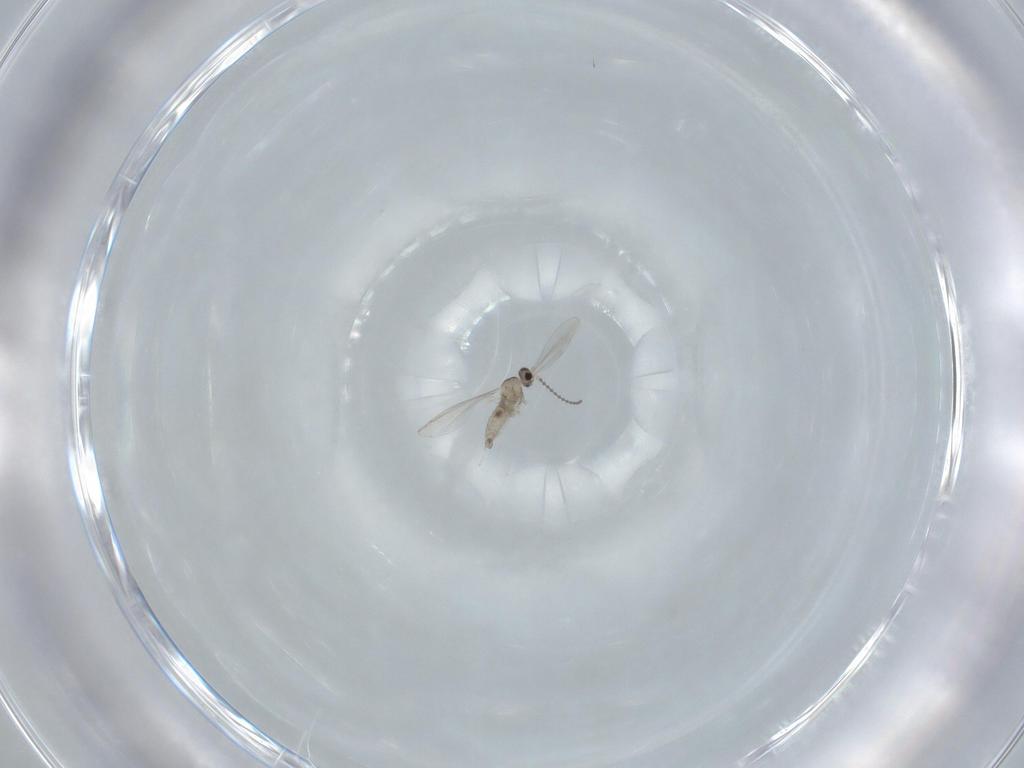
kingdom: Animalia
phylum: Arthropoda
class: Insecta
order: Diptera
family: Cecidomyiidae
